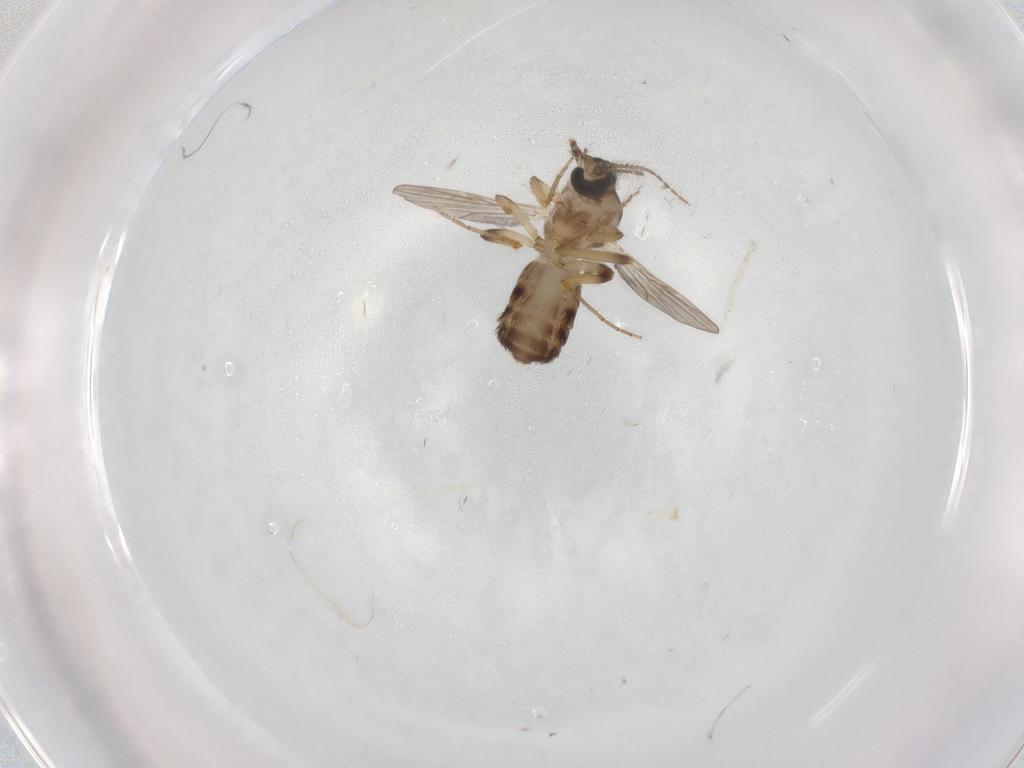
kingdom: Animalia
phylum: Arthropoda
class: Insecta
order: Diptera
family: Ceratopogonidae
